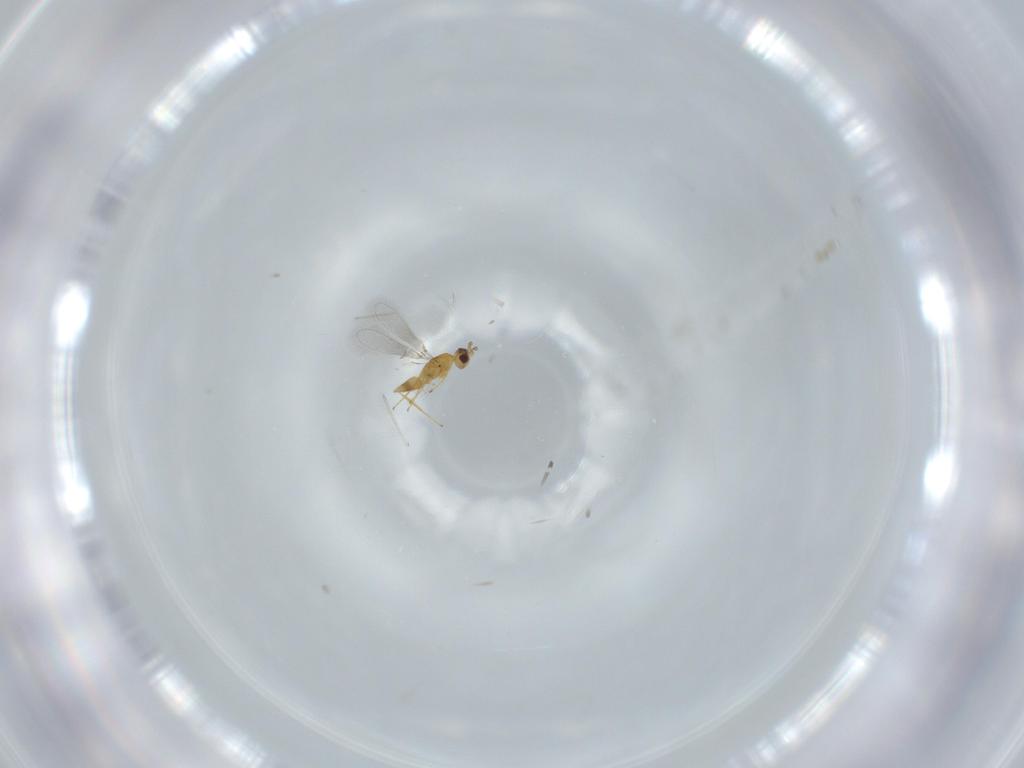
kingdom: Animalia
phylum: Arthropoda
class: Insecta
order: Hymenoptera
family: Mymaridae
